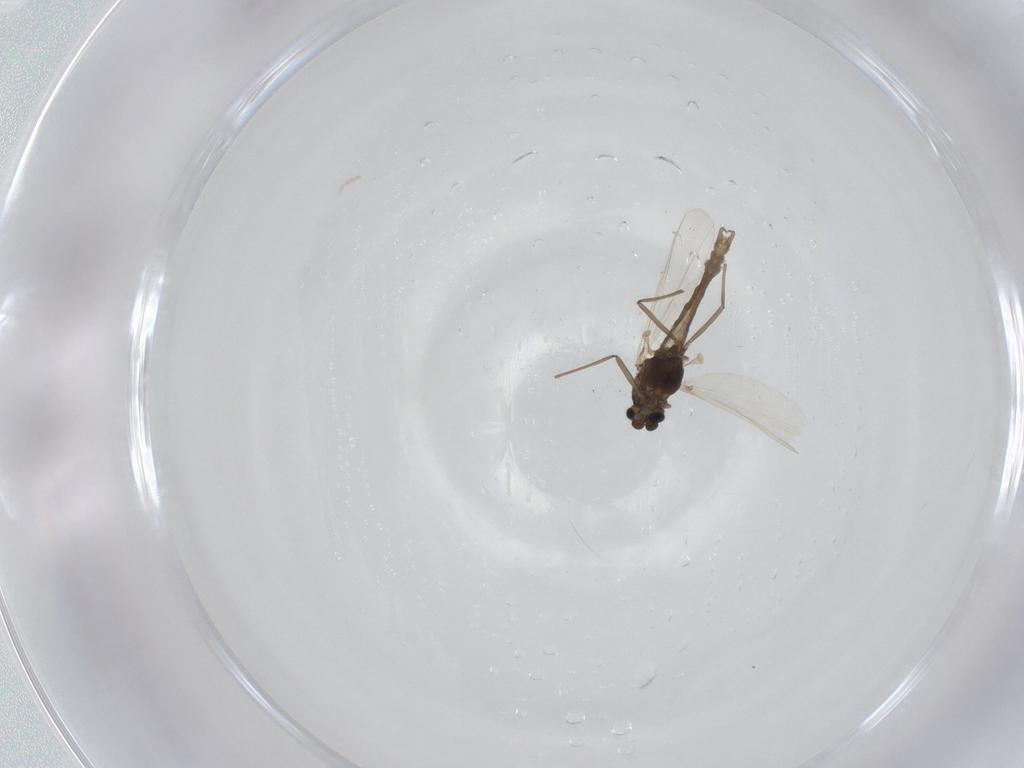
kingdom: Animalia
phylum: Arthropoda
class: Insecta
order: Diptera
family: Chironomidae
